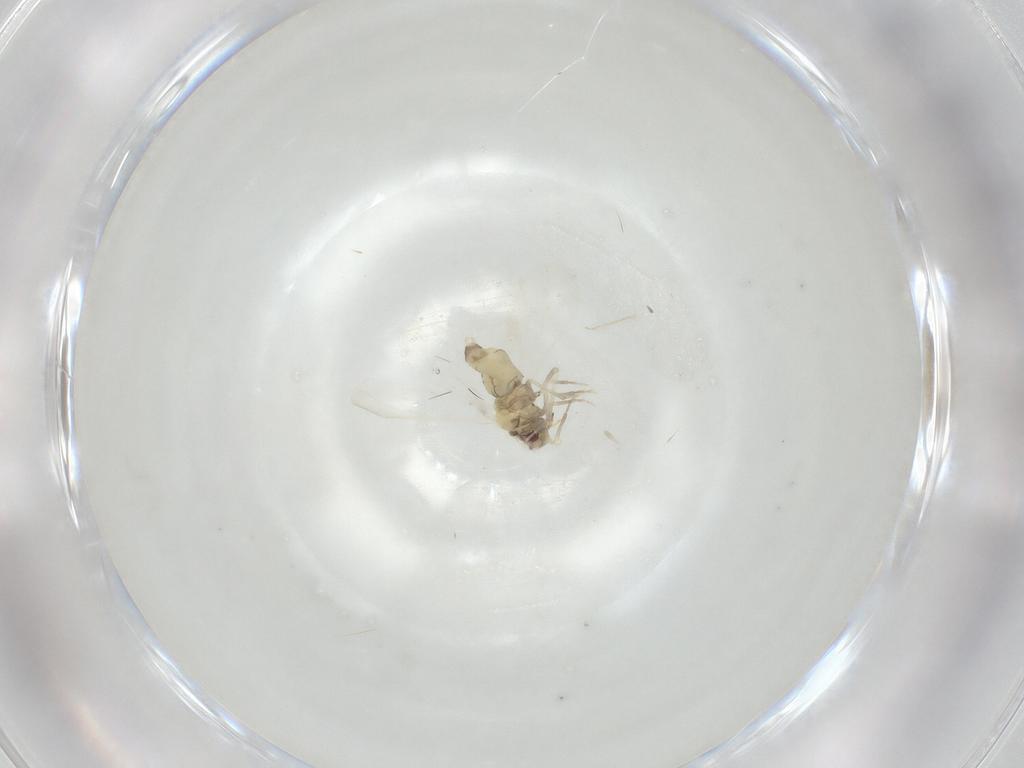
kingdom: Animalia
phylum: Arthropoda
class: Insecta
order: Hemiptera
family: Aleyrodidae
